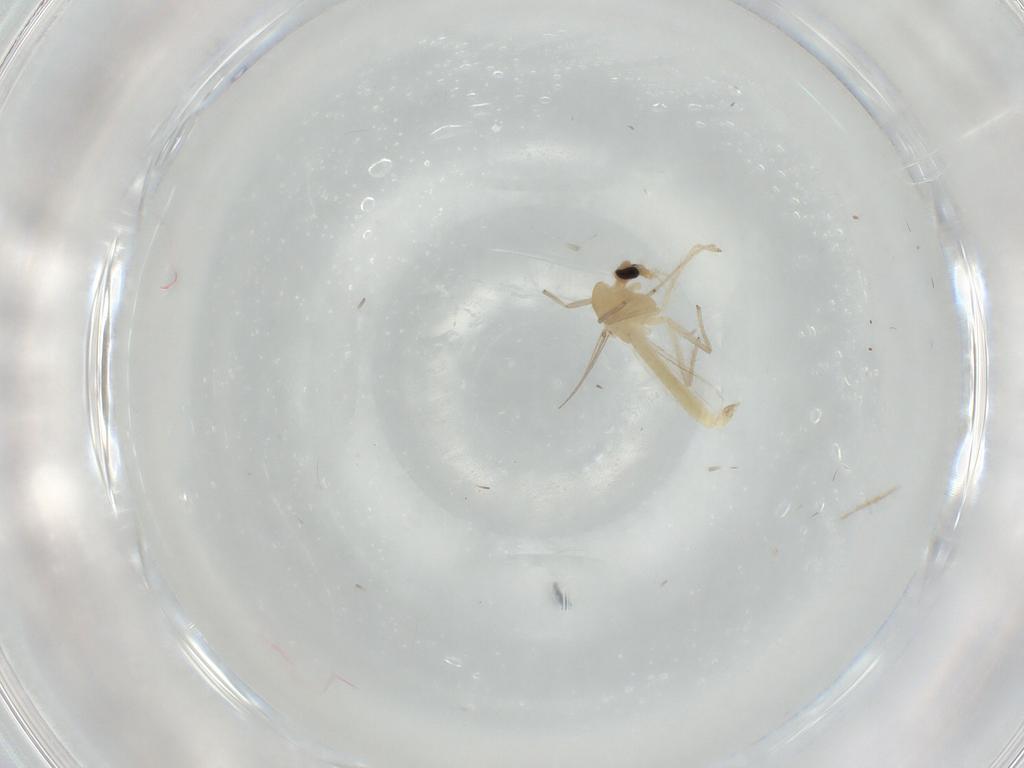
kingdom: Animalia
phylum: Arthropoda
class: Insecta
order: Diptera
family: Chironomidae
